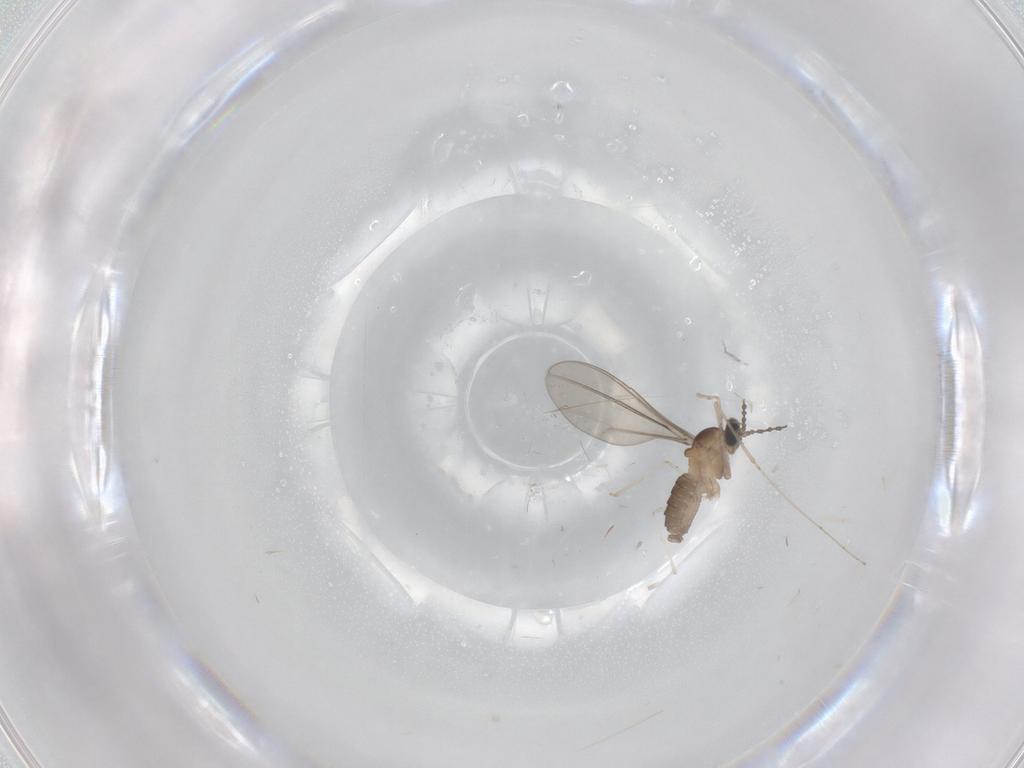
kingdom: Animalia
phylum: Arthropoda
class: Insecta
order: Diptera
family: Cecidomyiidae
